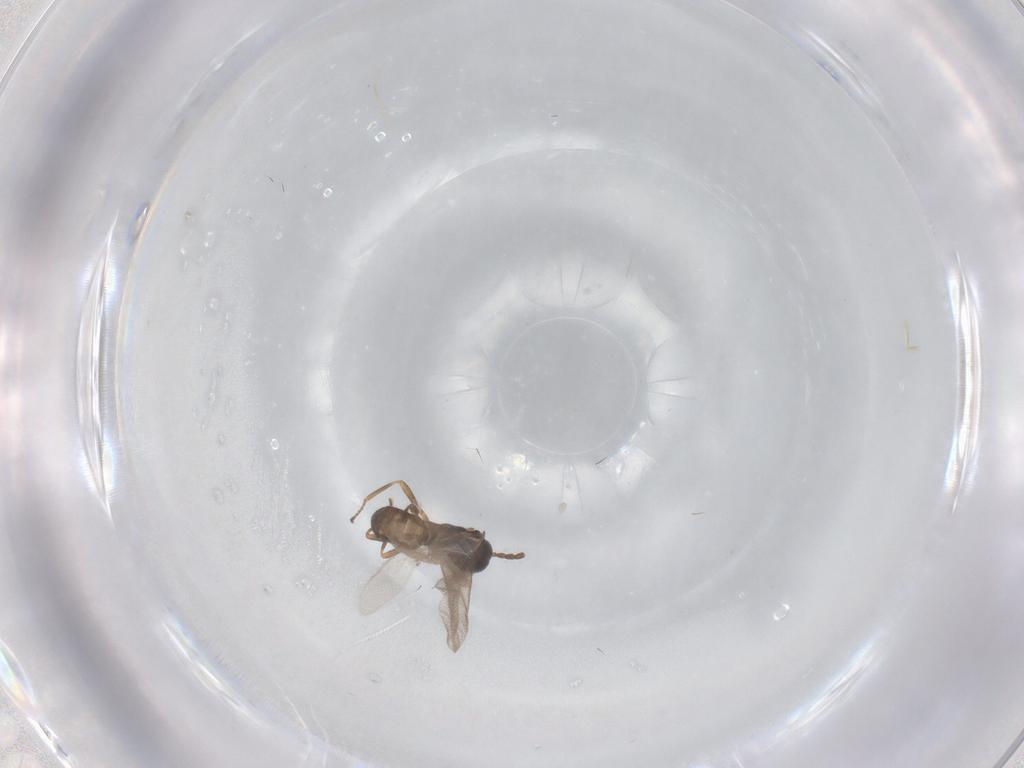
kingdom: Animalia
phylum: Arthropoda
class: Insecta
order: Hymenoptera
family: Braconidae
